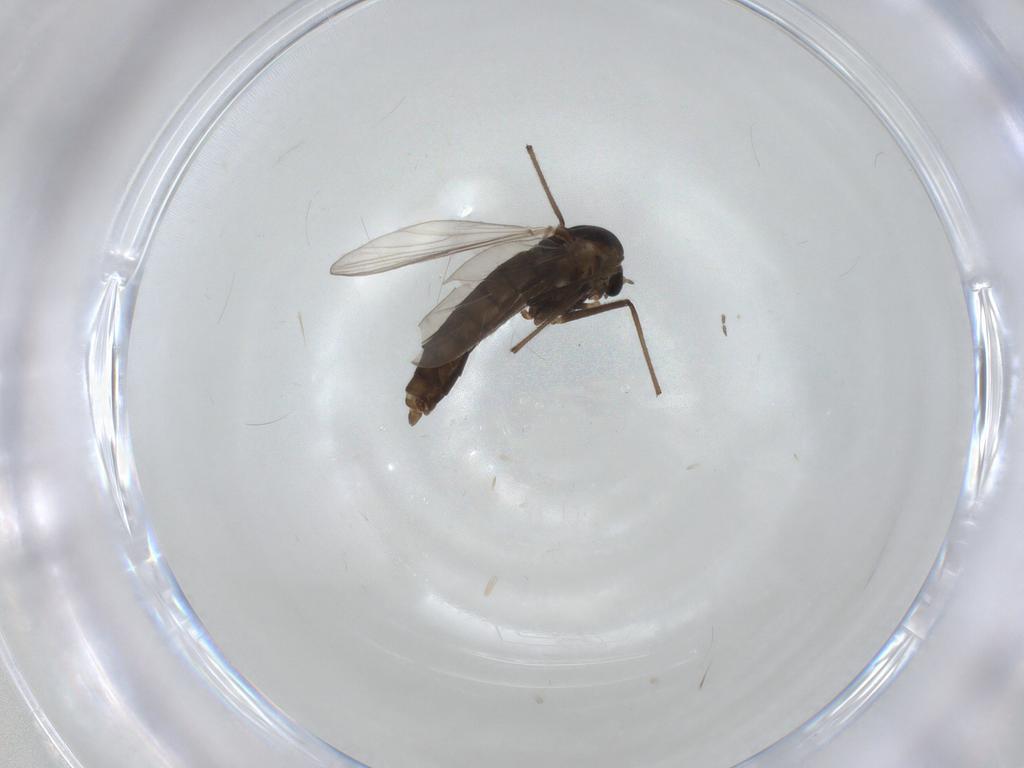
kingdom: Animalia
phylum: Arthropoda
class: Insecta
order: Diptera
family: Chironomidae
